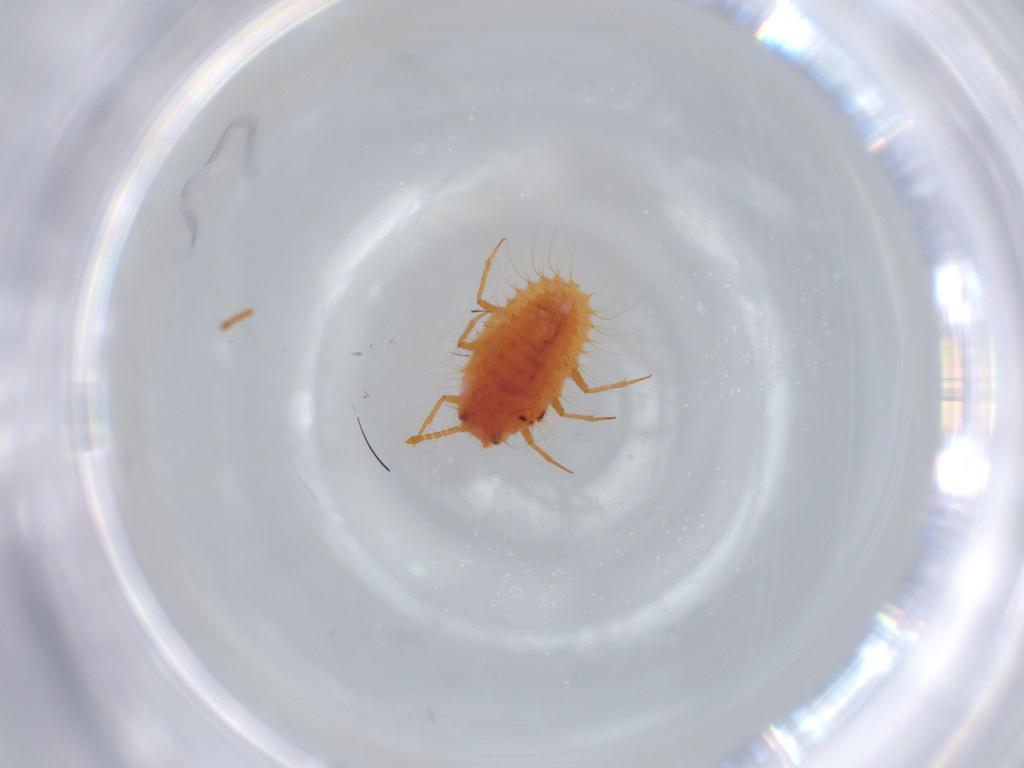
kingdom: Animalia
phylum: Arthropoda
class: Insecta
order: Hemiptera
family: Coccoidea_incertae_sedis
